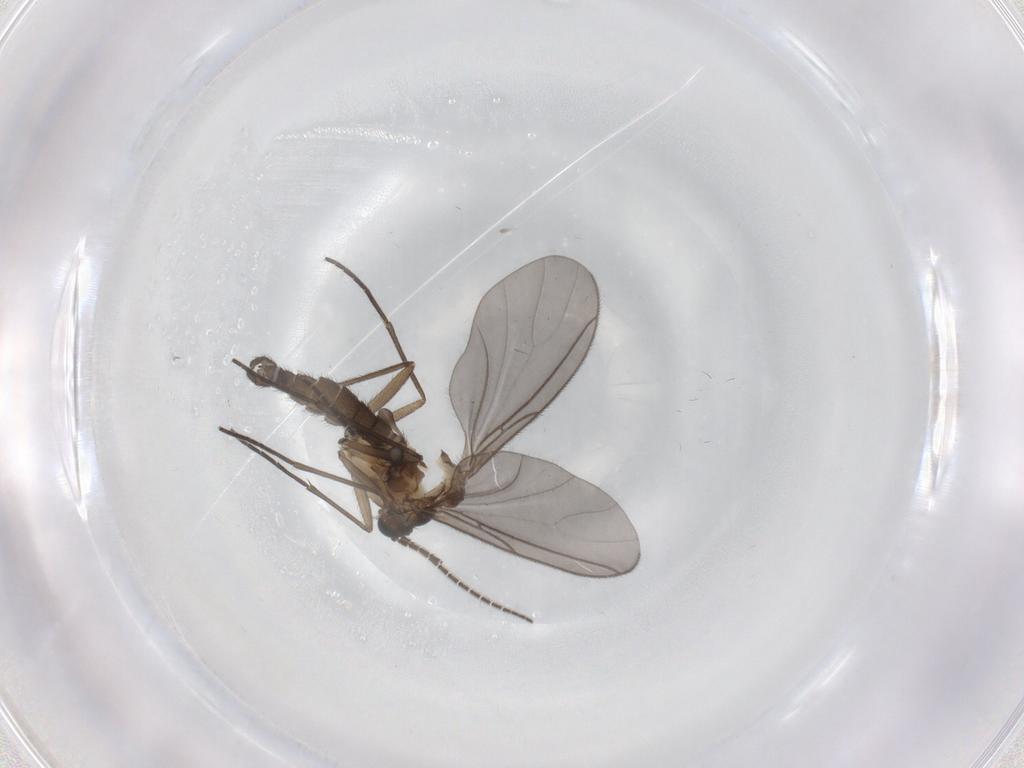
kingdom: Animalia
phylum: Arthropoda
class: Insecta
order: Diptera
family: Sciaridae
